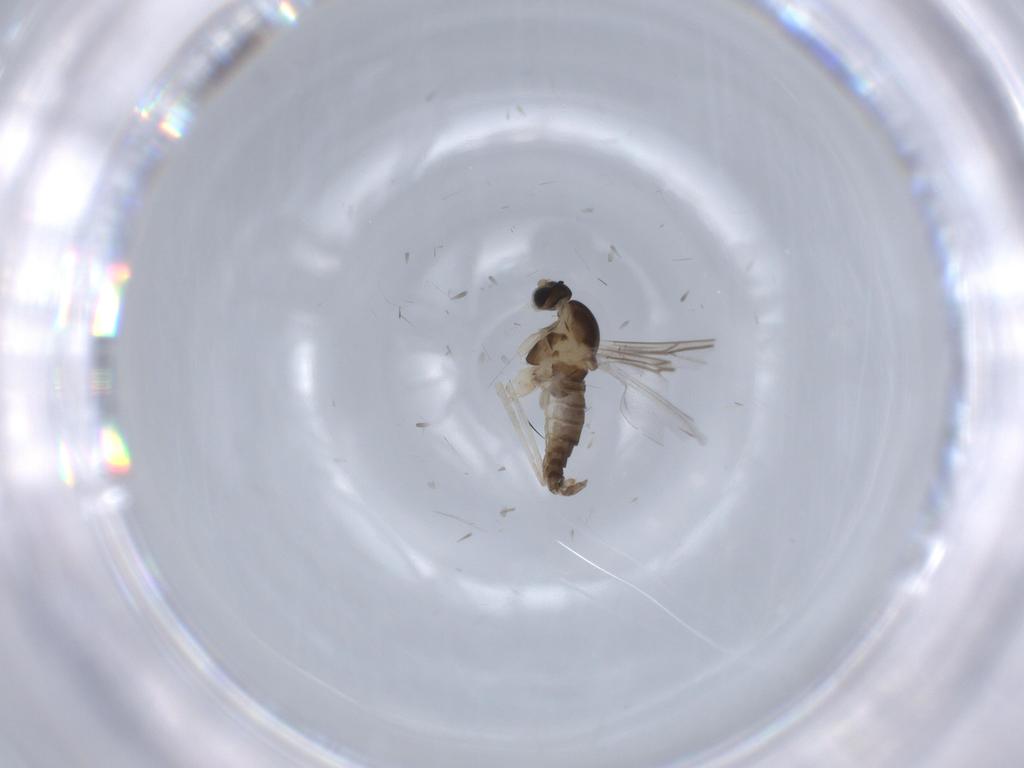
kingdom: Animalia
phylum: Arthropoda
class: Insecta
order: Diptera
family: Cecidomyiidae
